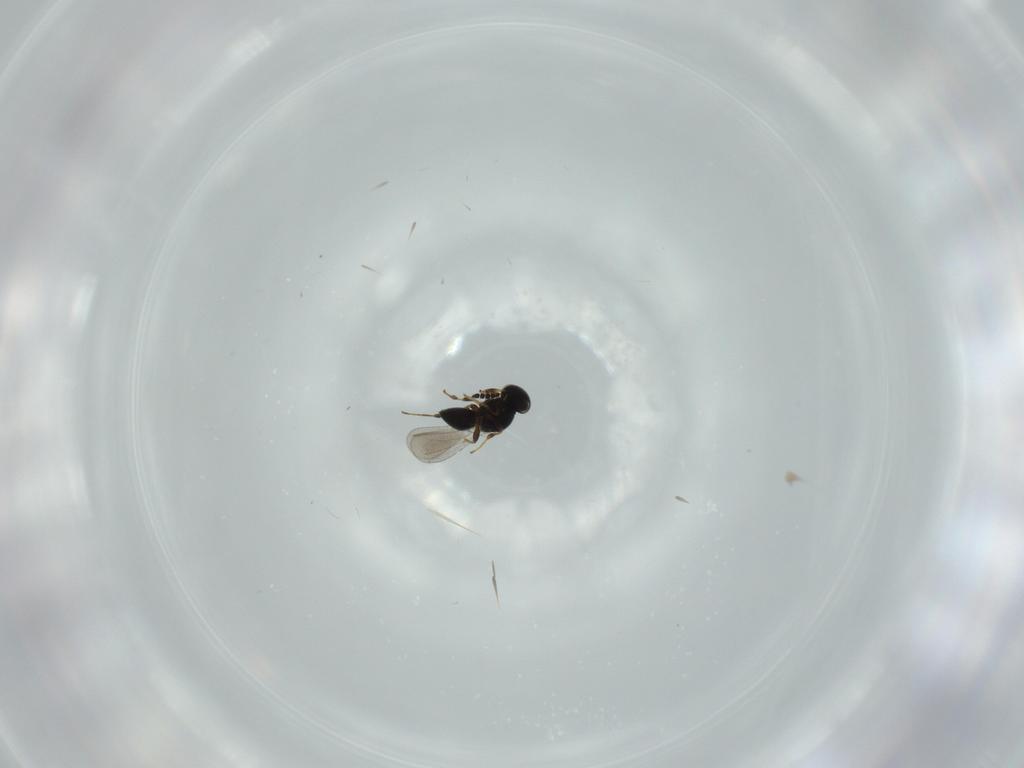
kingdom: Animalia
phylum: Arthropoda
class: Insecta
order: Hymenoptera
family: Platygastridae
